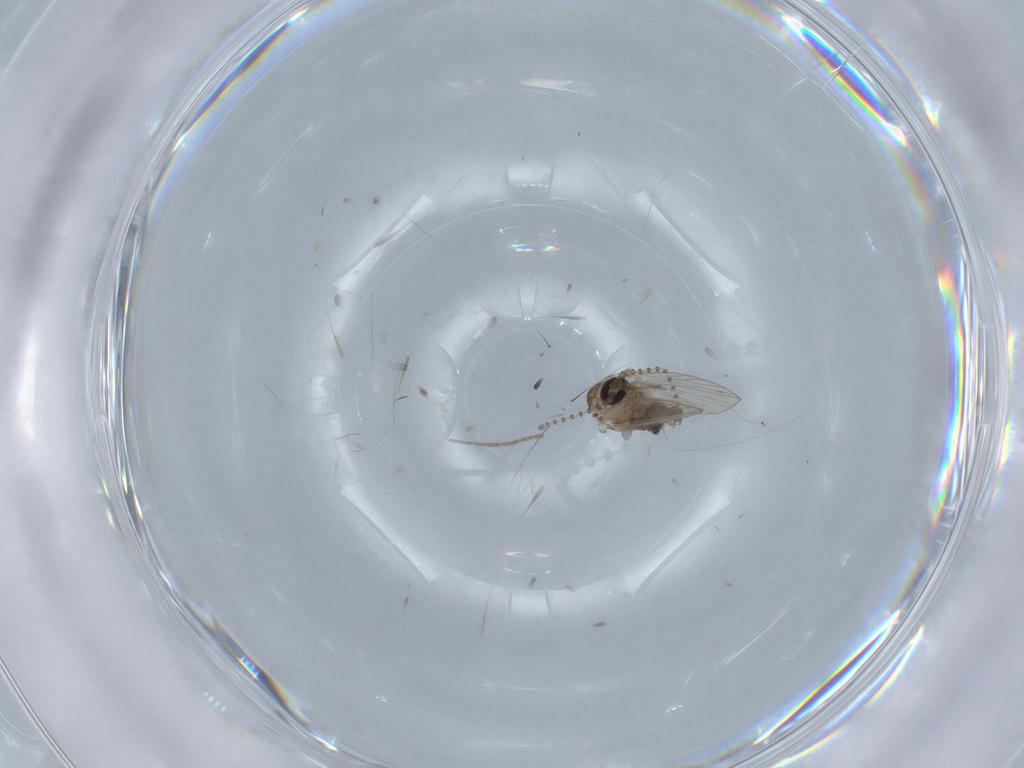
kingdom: Animalia
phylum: Arthropoda
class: Insecta
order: Diptera
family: Psychodidae
